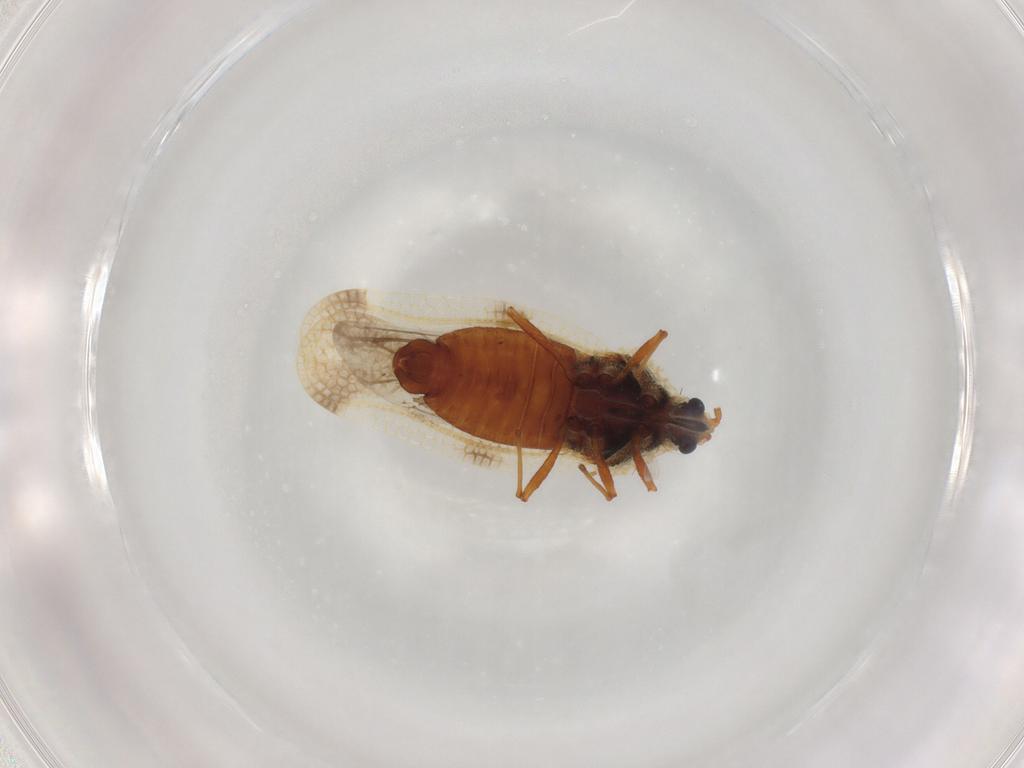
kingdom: Animalia
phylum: Arthropoda
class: Insecta
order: Hemiptera
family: Tingidae
